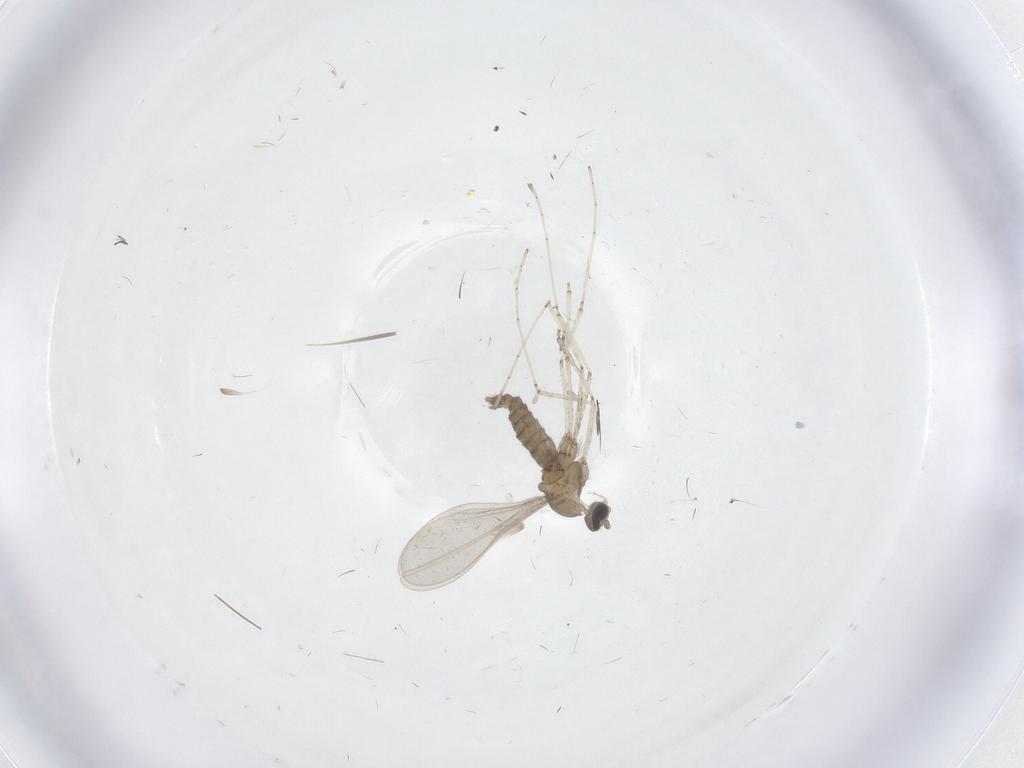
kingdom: Animalia
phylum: Arthropoda
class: Insecta
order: Diptera
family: Cecidomyiidae
